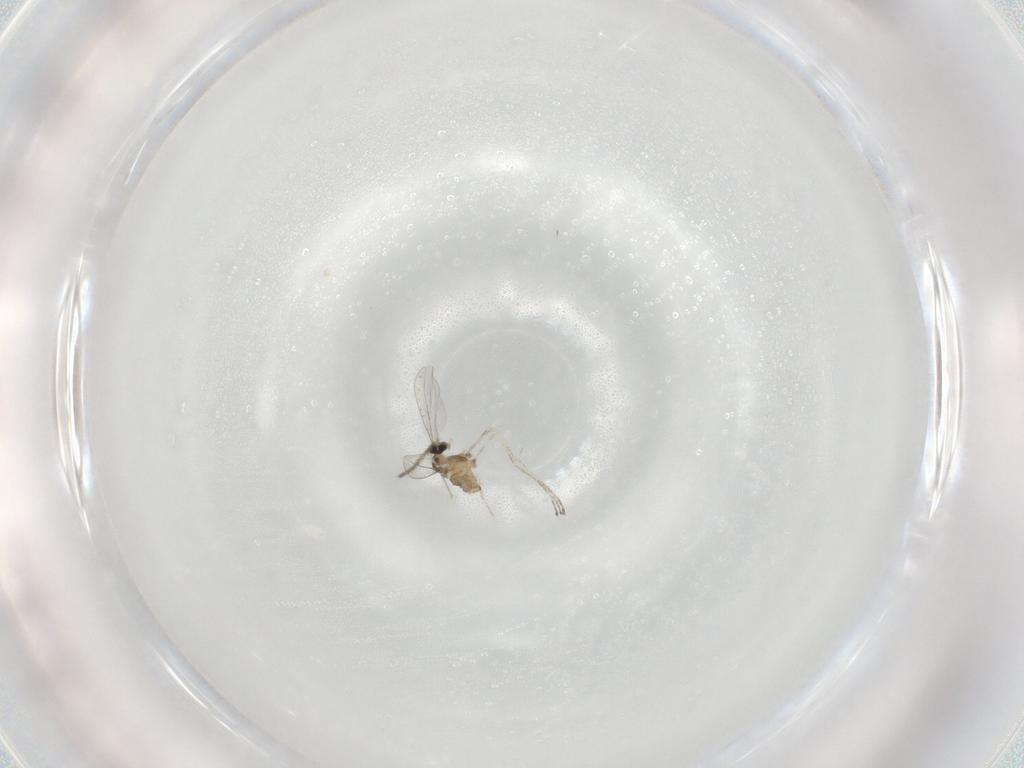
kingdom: Animalia
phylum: Arthropoda
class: Insecta
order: Diptera
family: Cecidomyiidae
